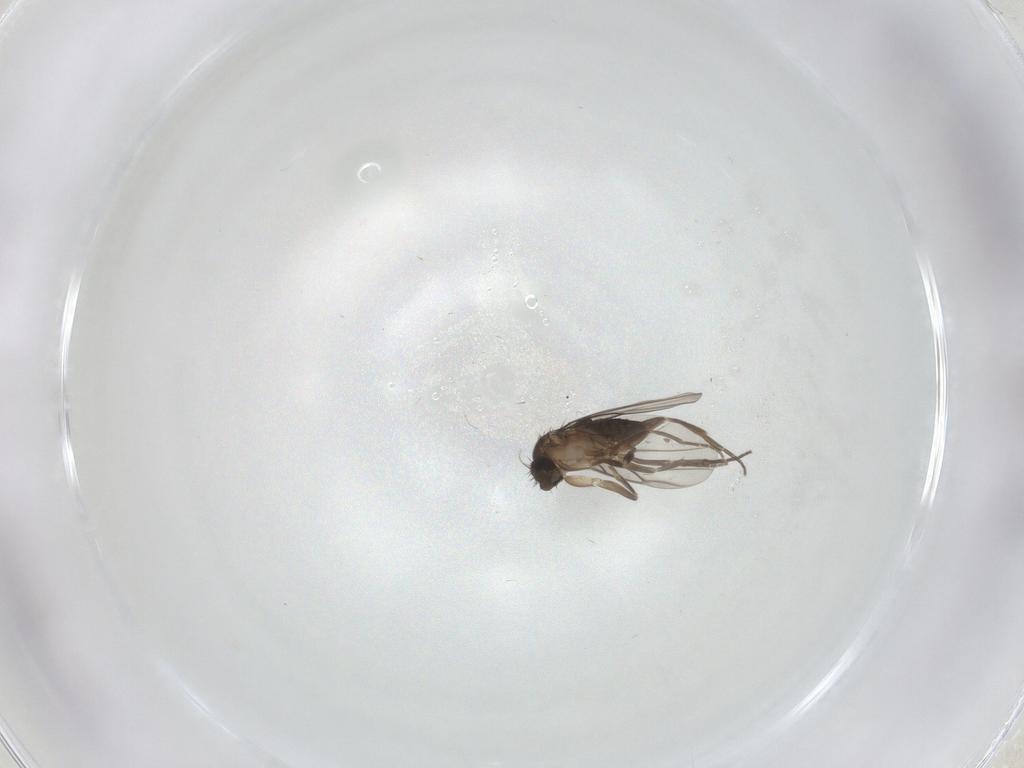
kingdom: Animalia
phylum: Arthropoda
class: Insecta
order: Diptera
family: Phoridae
